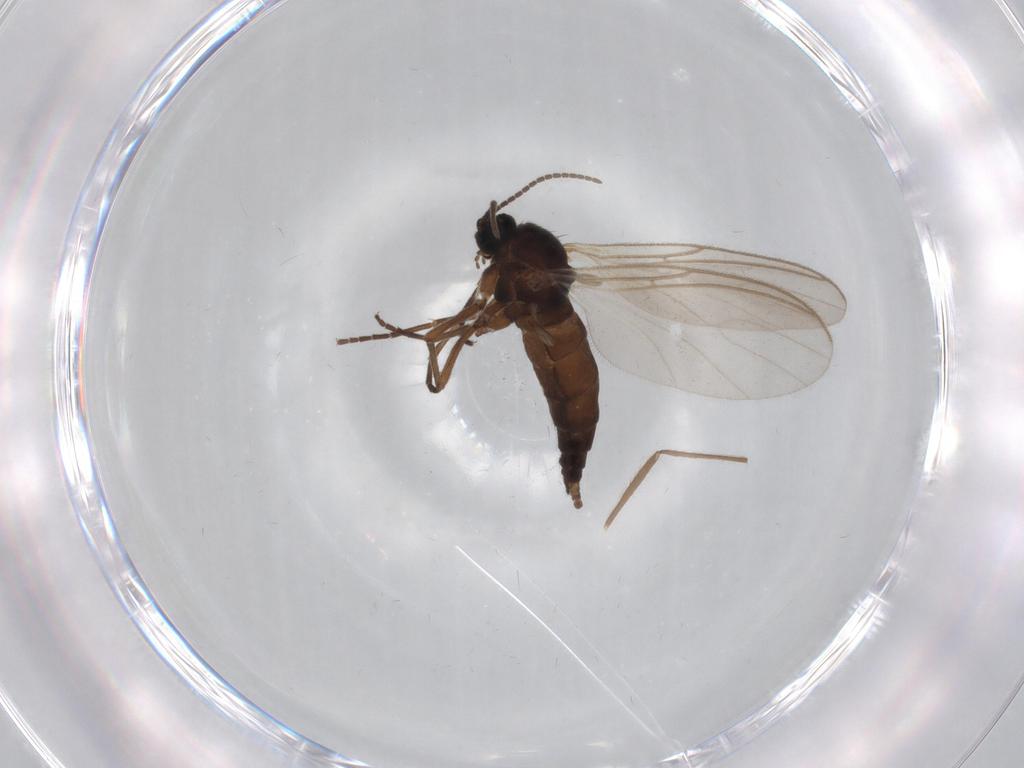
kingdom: Animalia
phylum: Arthropoda
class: Insecta
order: Diptera
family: Sciaridae
